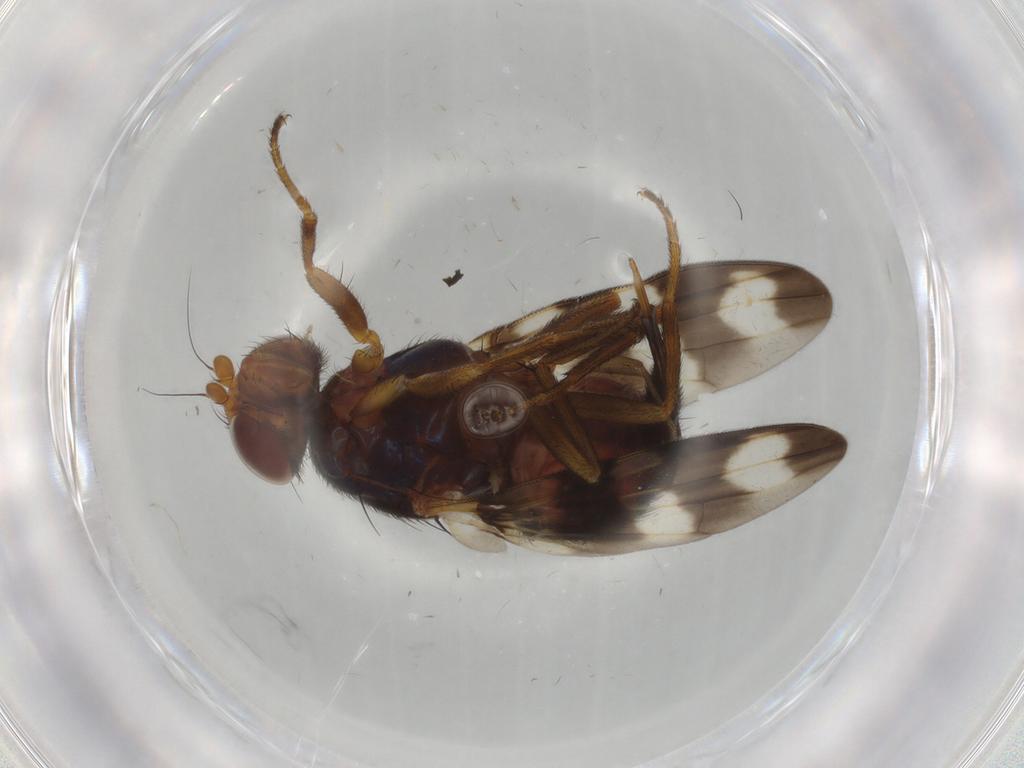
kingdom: Animalia
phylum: Arthropoda
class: Insecta
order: Diptera
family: Ulidiidae
